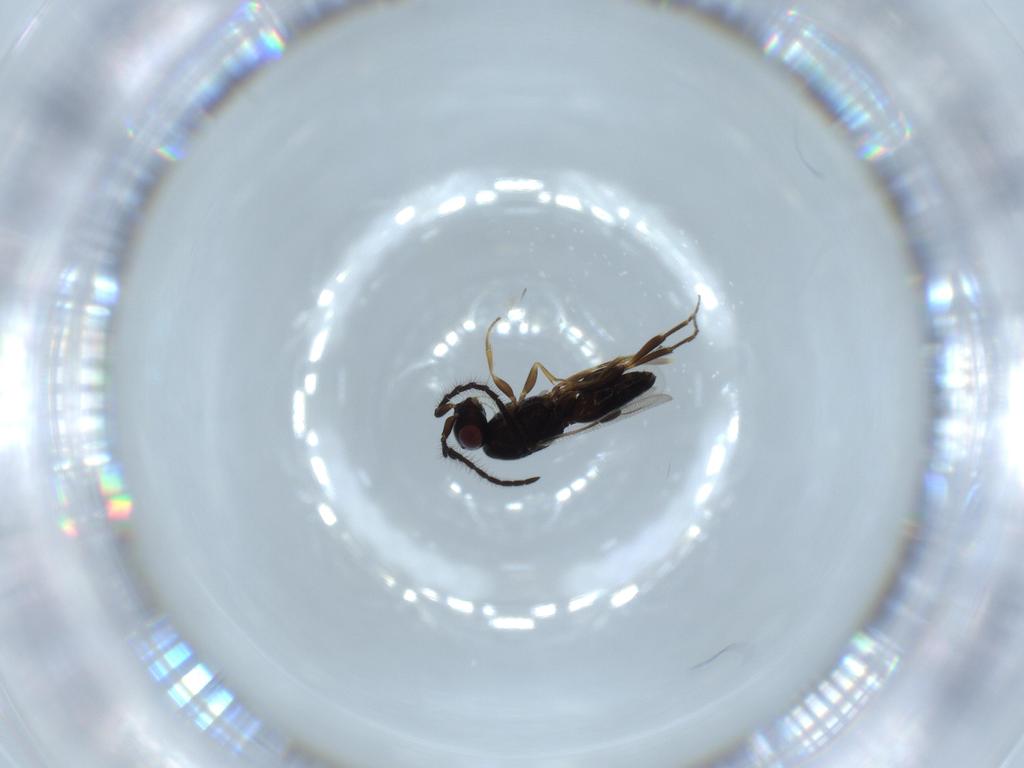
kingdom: Animalia
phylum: Arthropoda
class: Insecta
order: Hymenoptera
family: Megaspilidae
